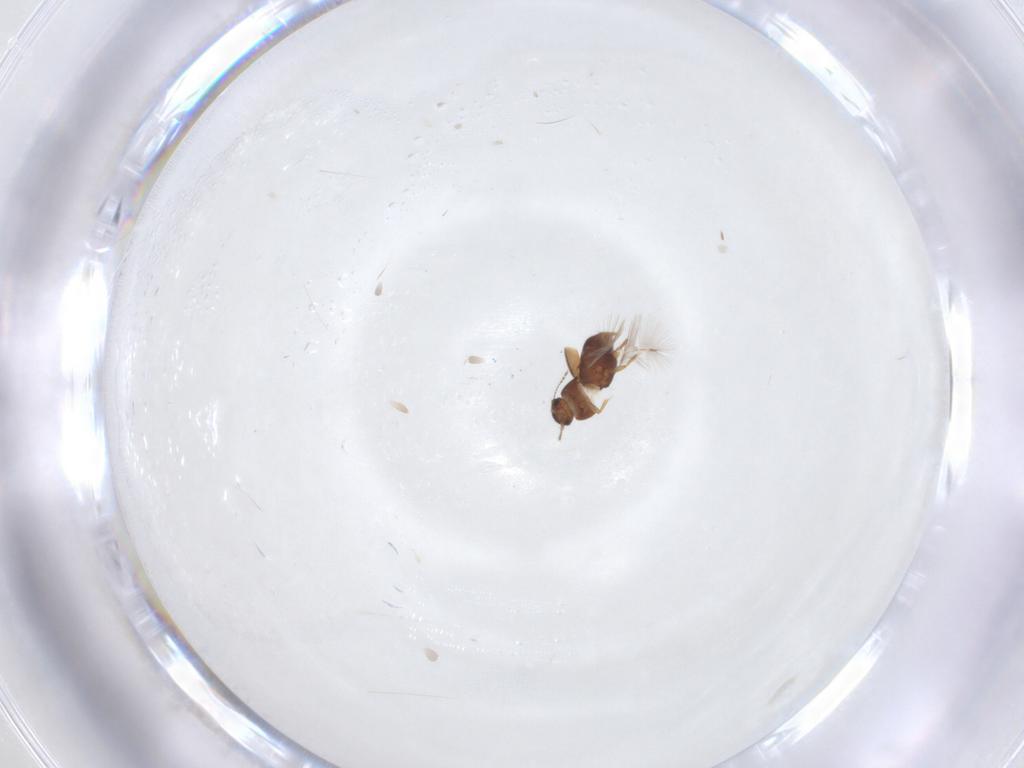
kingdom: Animalia
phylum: Arthropoda
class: Insecta
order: Coleoptera
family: Ptiliidae
